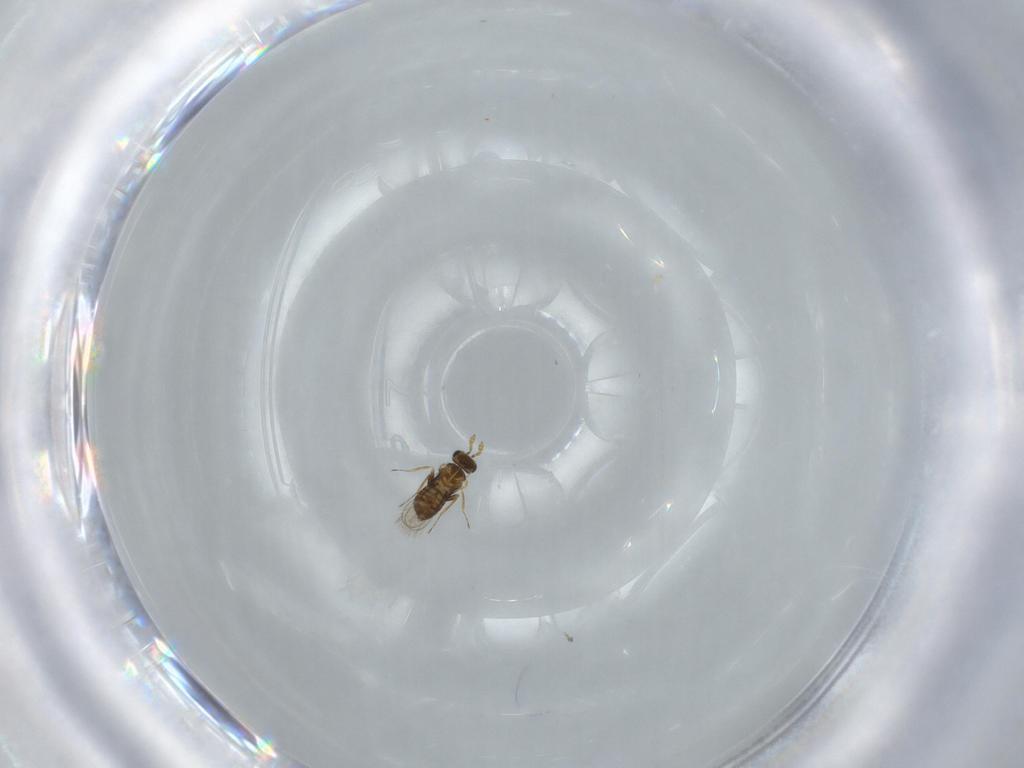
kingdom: Animalia
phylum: Arthropoda
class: Insecta
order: Hymenoptera
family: Trichogrammatidae
